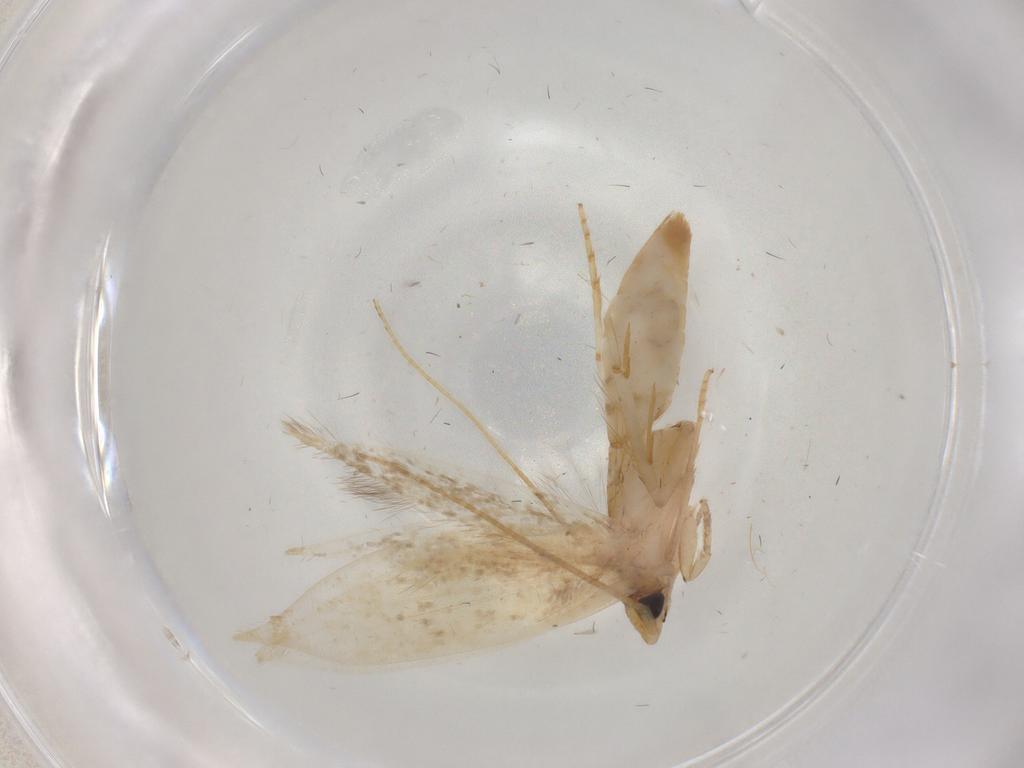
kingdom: Animalia
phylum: Arthropoda
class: Insecta
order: Lepidoptera
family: Tineidae
